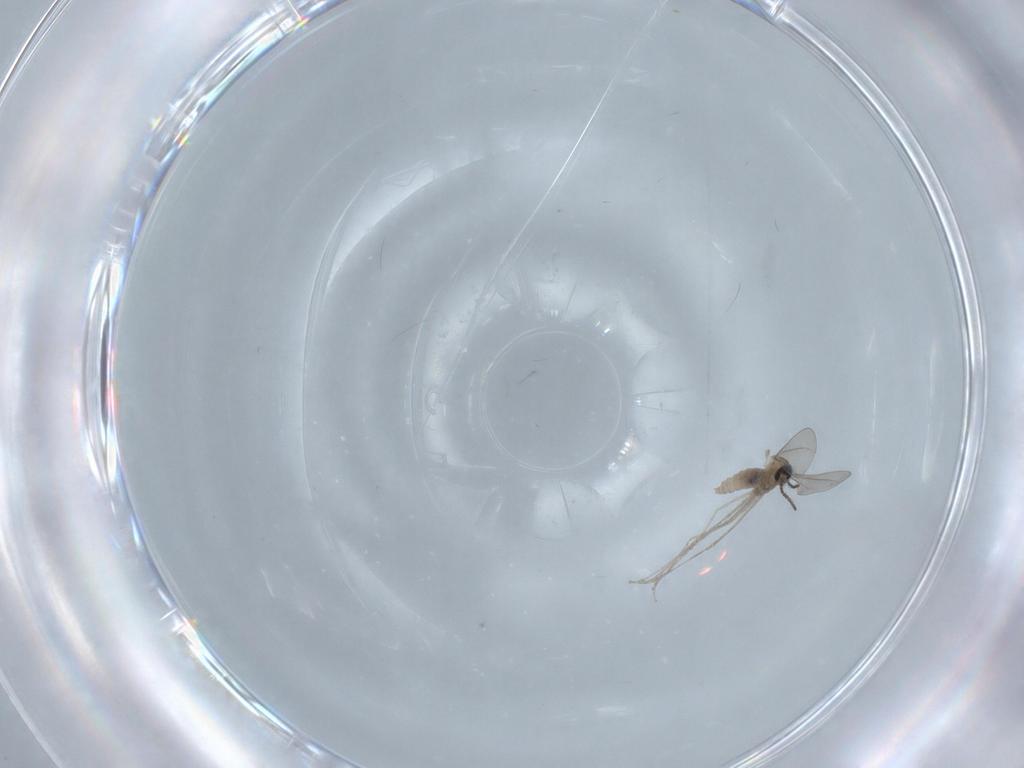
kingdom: Animalia
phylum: Arthropoda
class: Insecta
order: Diptera
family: Cecidomyiidae
